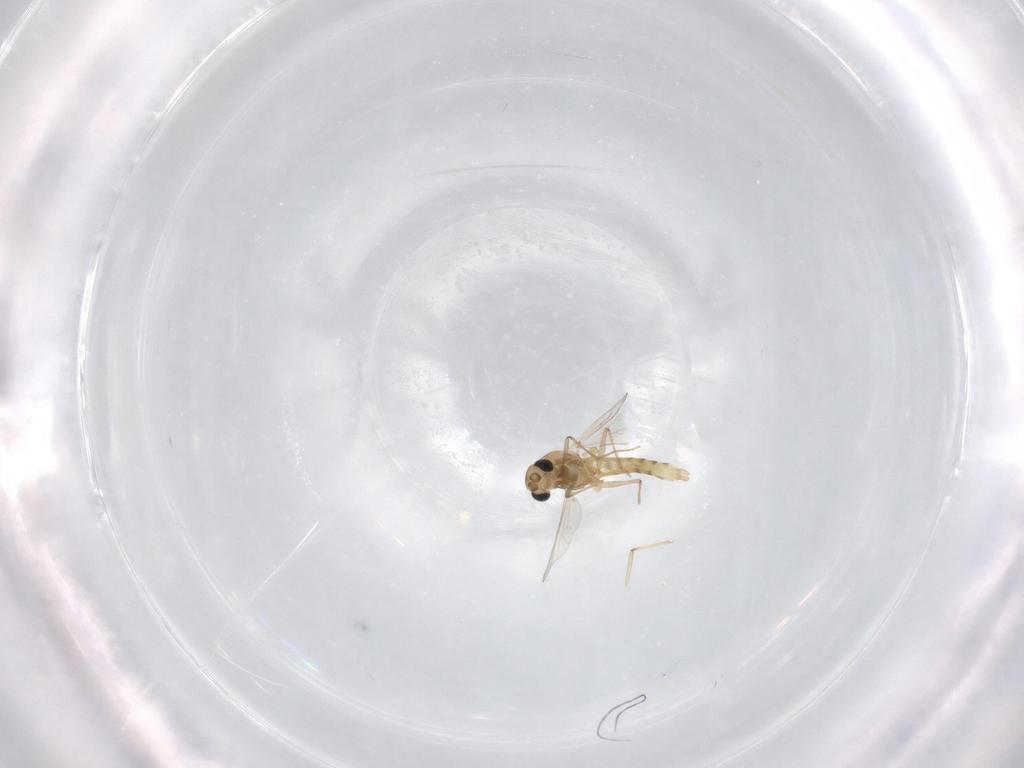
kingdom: Animalia
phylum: Arthropoda
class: Insecta
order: Diptera
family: Chironomidae
